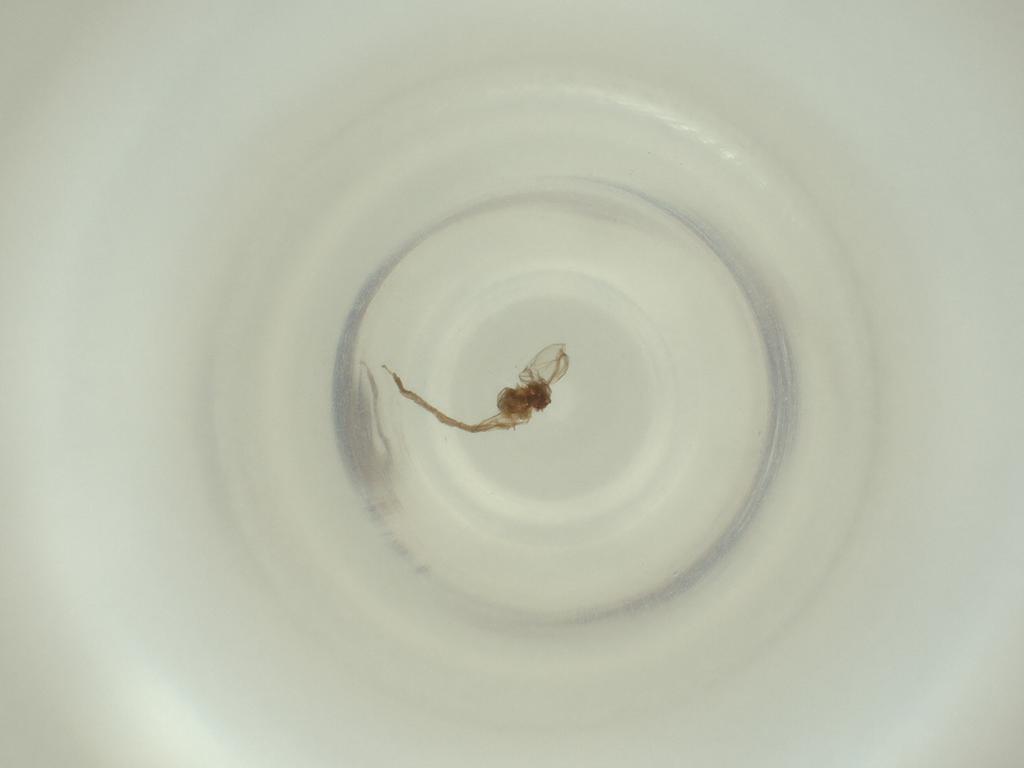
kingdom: Animalia
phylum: Arthropoda
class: Insecta
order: Diptera
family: Cecidomyiidae
